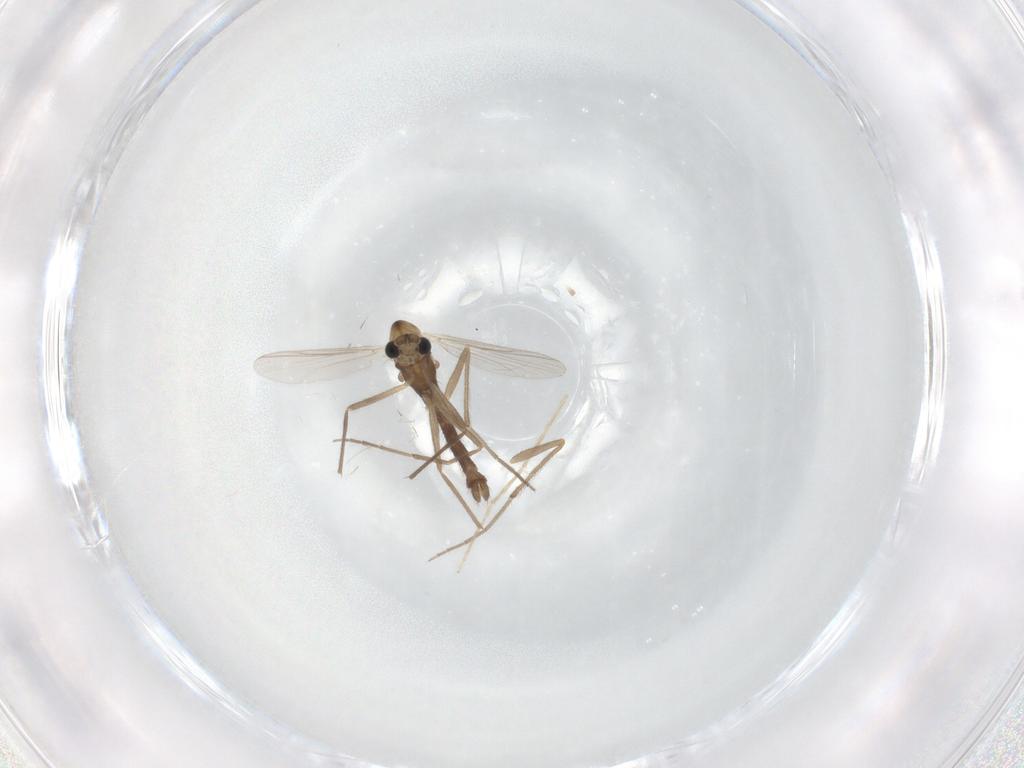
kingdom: Animalia
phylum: Arthropoda
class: Insecta
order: Diptera
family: Chironomidae
